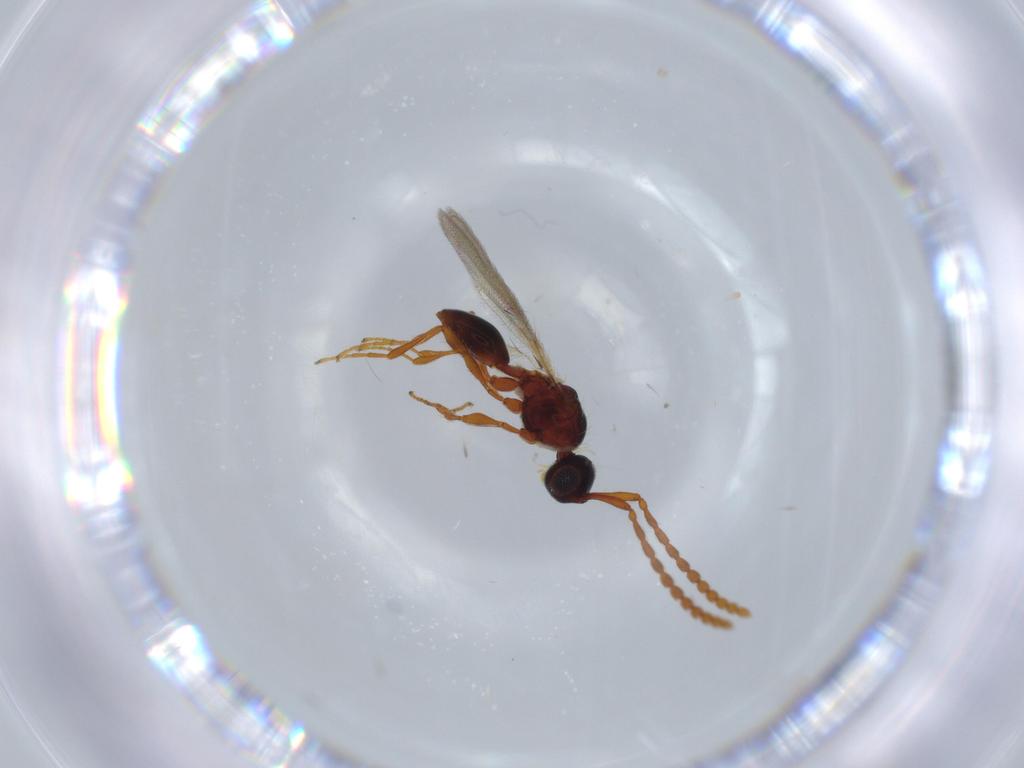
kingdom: Animalia
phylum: Arthropoda
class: Insecta
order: Hymenoptera
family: Diapriidae
